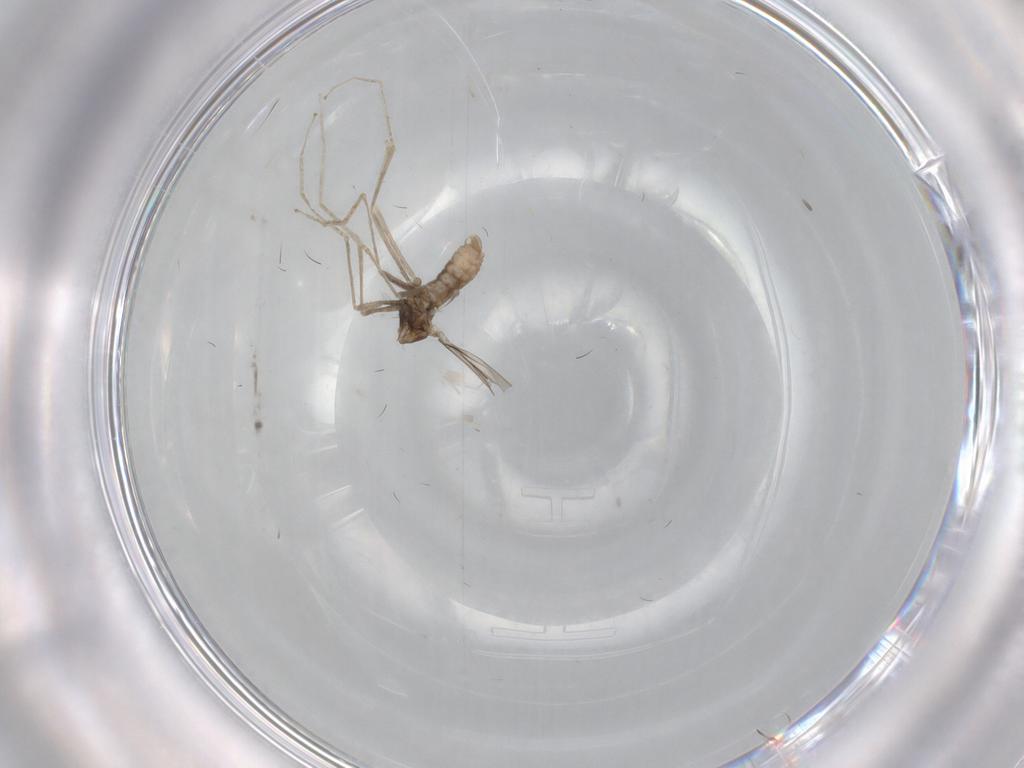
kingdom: Animalia
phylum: Arthropoda
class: Insecta
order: Diptera
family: Cecidomyiidae
